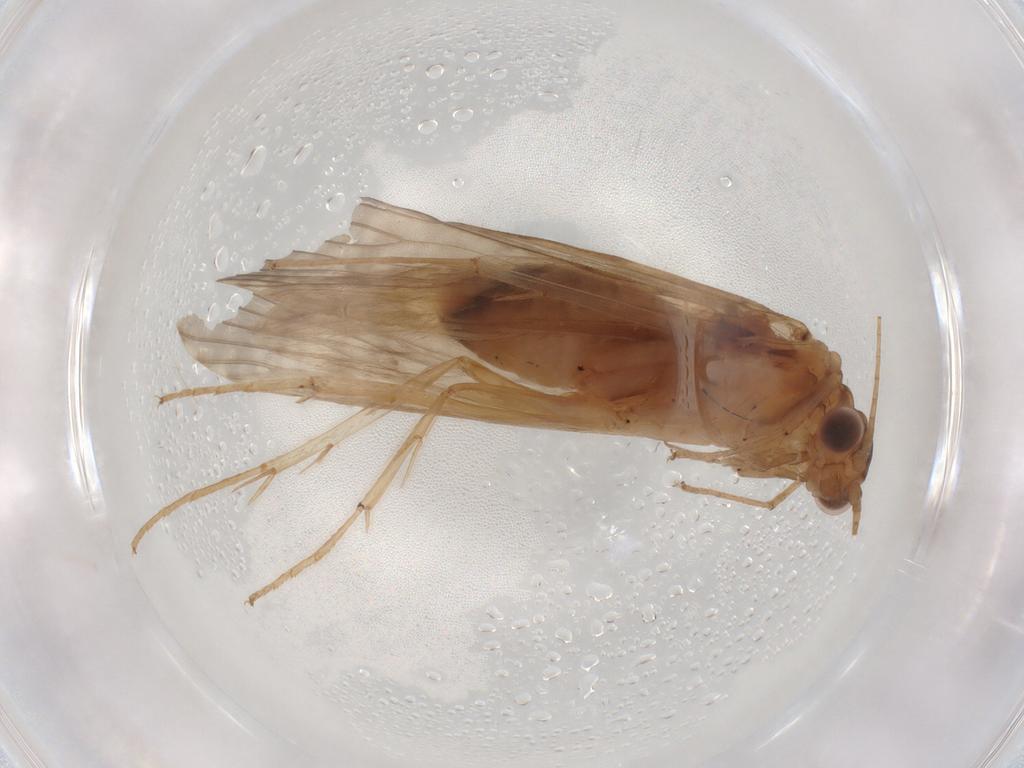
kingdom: Animalia
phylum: Arthropoda
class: Insecta
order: Trichoptera
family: Hydropsychidae
